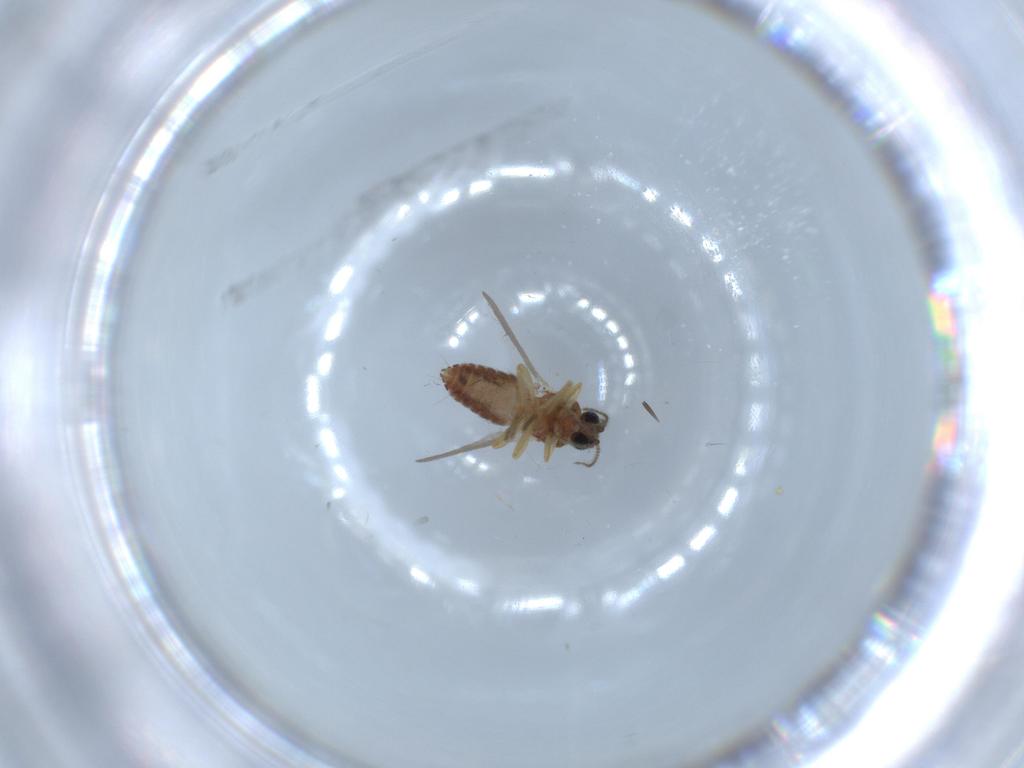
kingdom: Animalia
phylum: Arthropoda
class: Insecta
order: Diptera
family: Ceratopogonidae
